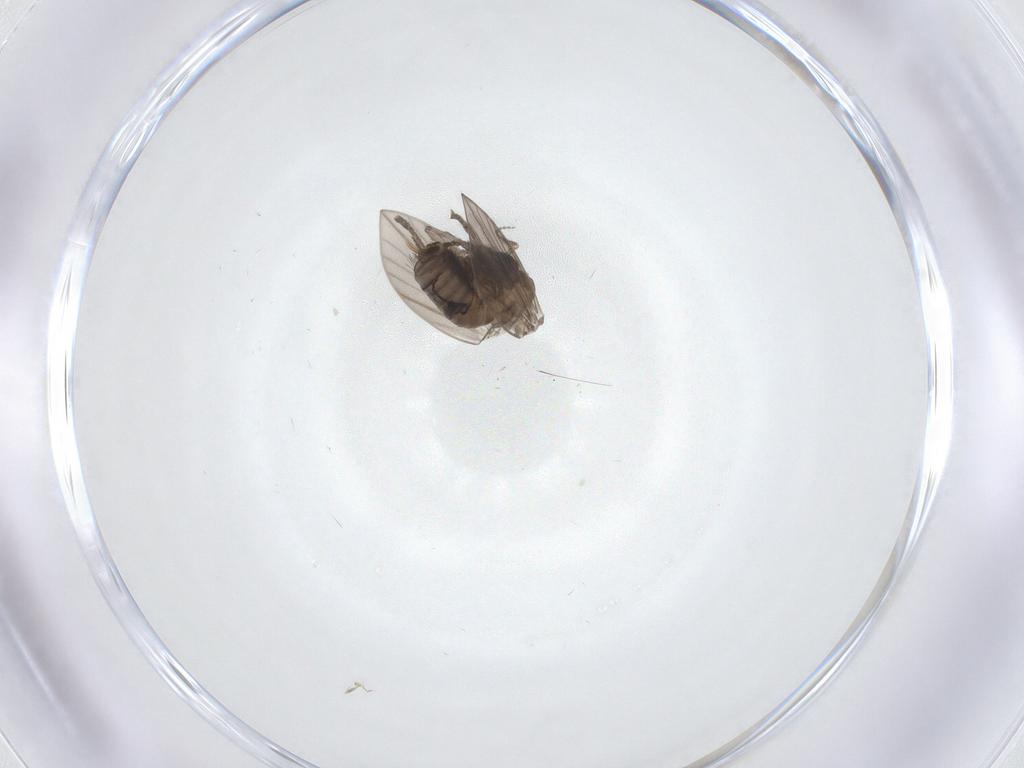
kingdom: Animalia
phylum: Arthropoda
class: Insecta
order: Diptera
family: Psychodidae
